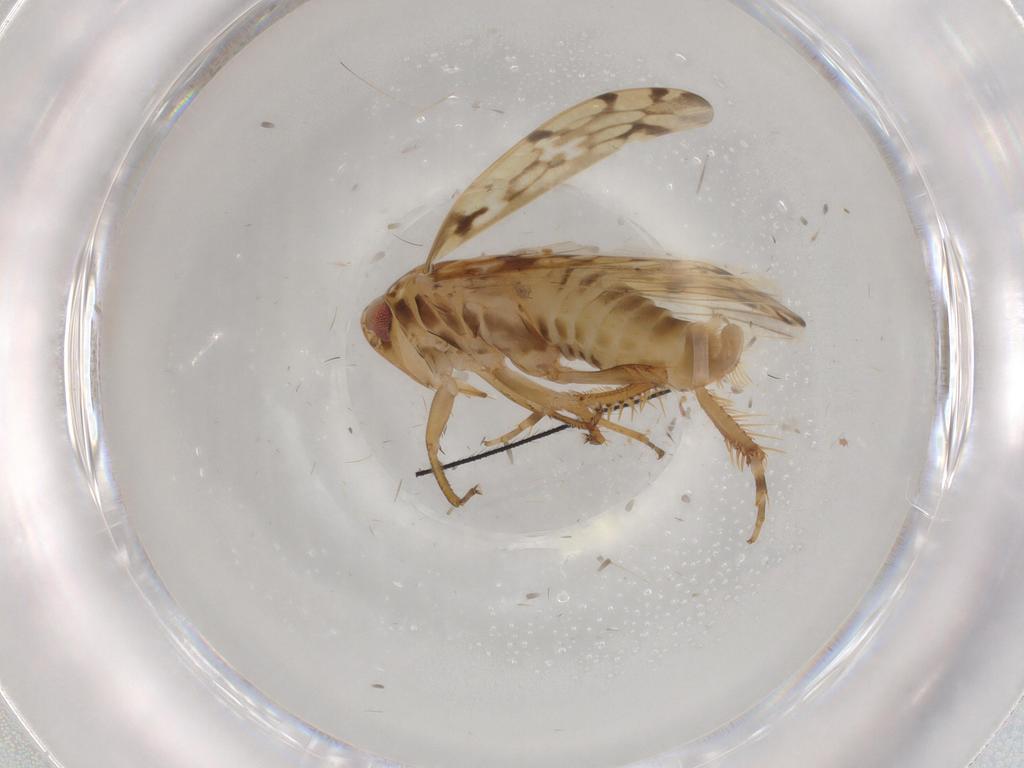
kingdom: Animalia
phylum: Arthropoda
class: Insecta
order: Hemiptera
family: Cicadellidae
